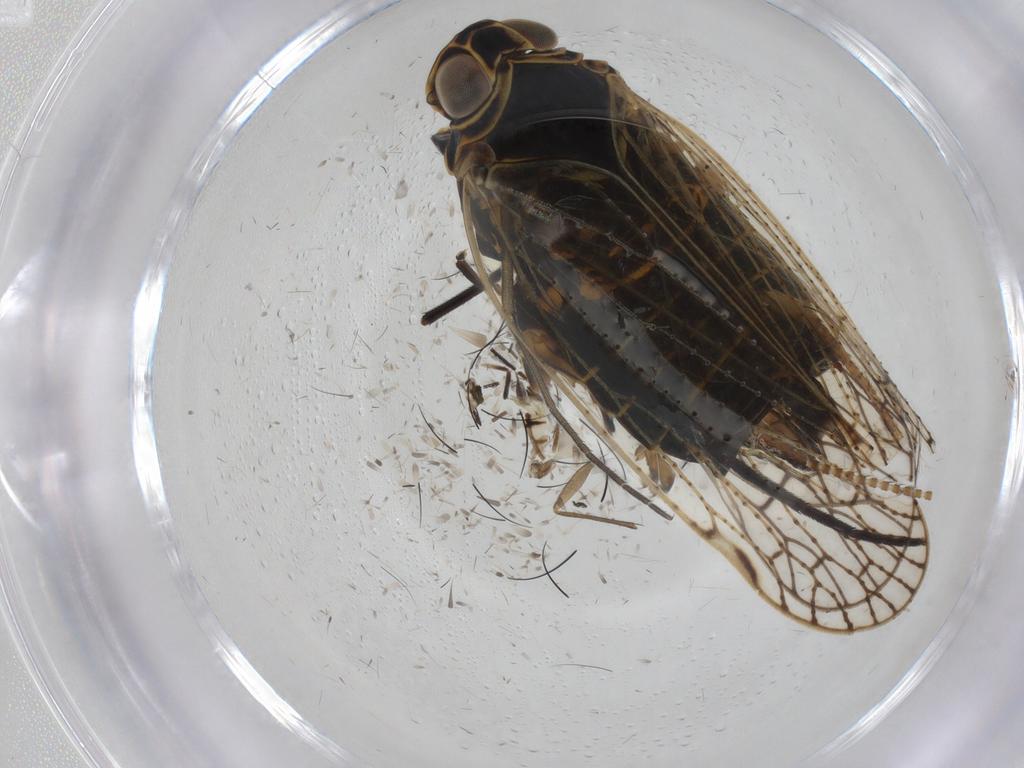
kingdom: Animalia
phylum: Arthropoda
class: Insecta
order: Hemiptera
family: Cixiidae
